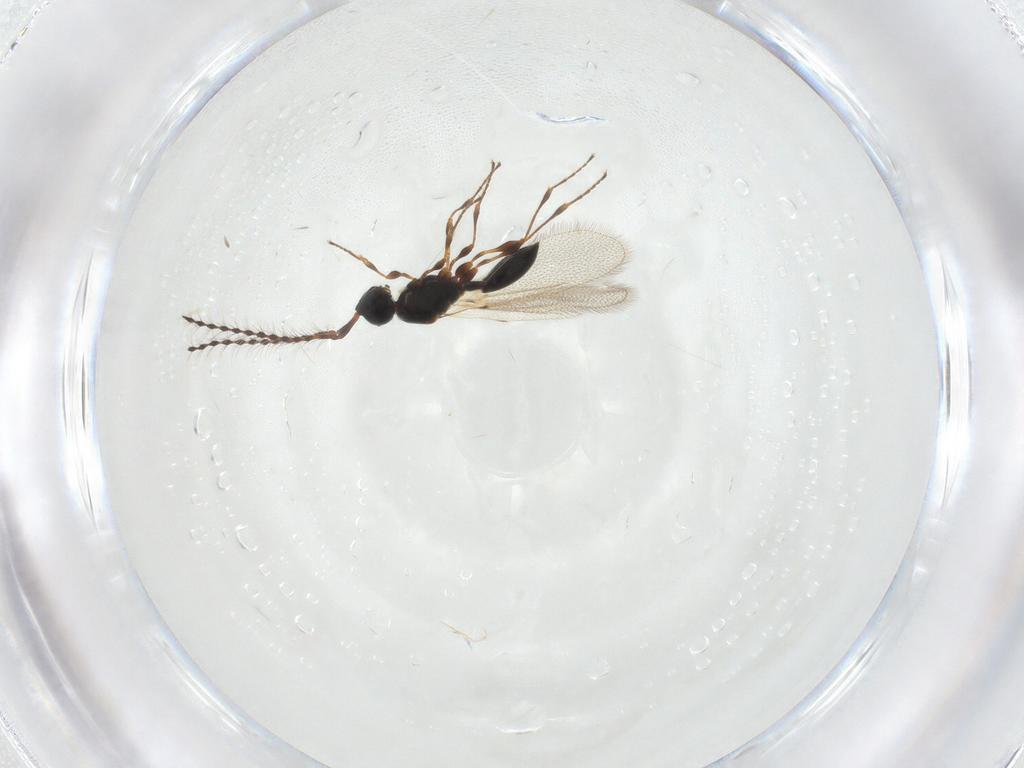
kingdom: Animalia
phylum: Arthropoda
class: Insecta
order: Hymenoptera
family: Diapriidae
